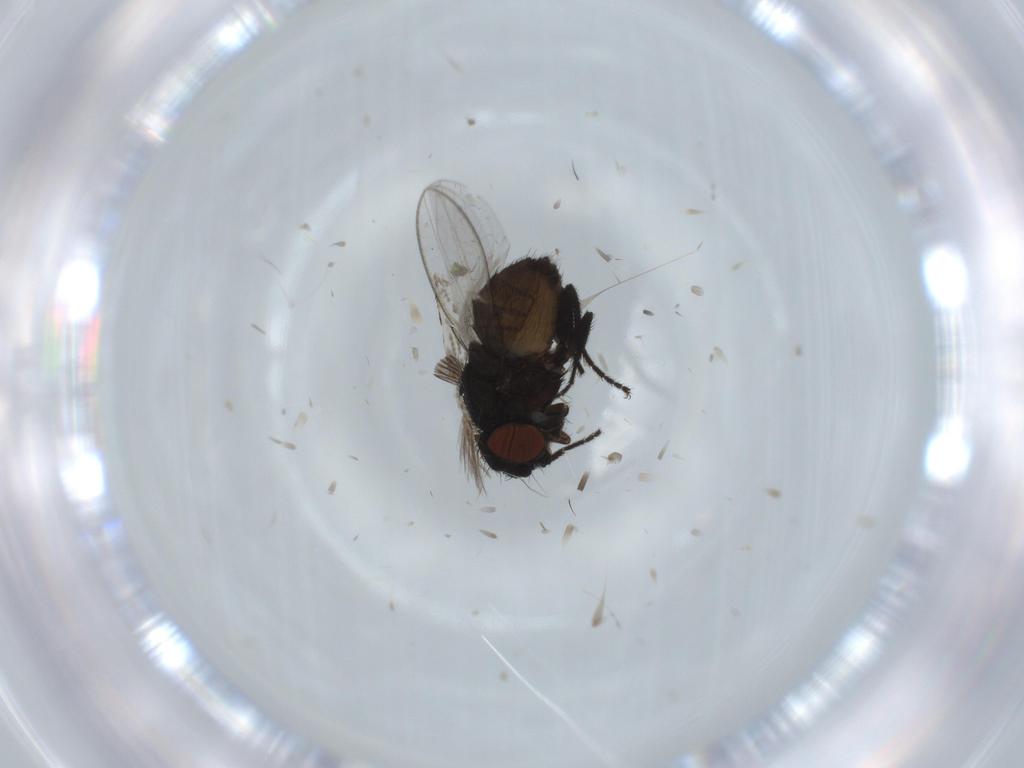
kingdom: Animalia
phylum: Arthropoda
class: Insecta
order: Diptera
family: Milichiidae
